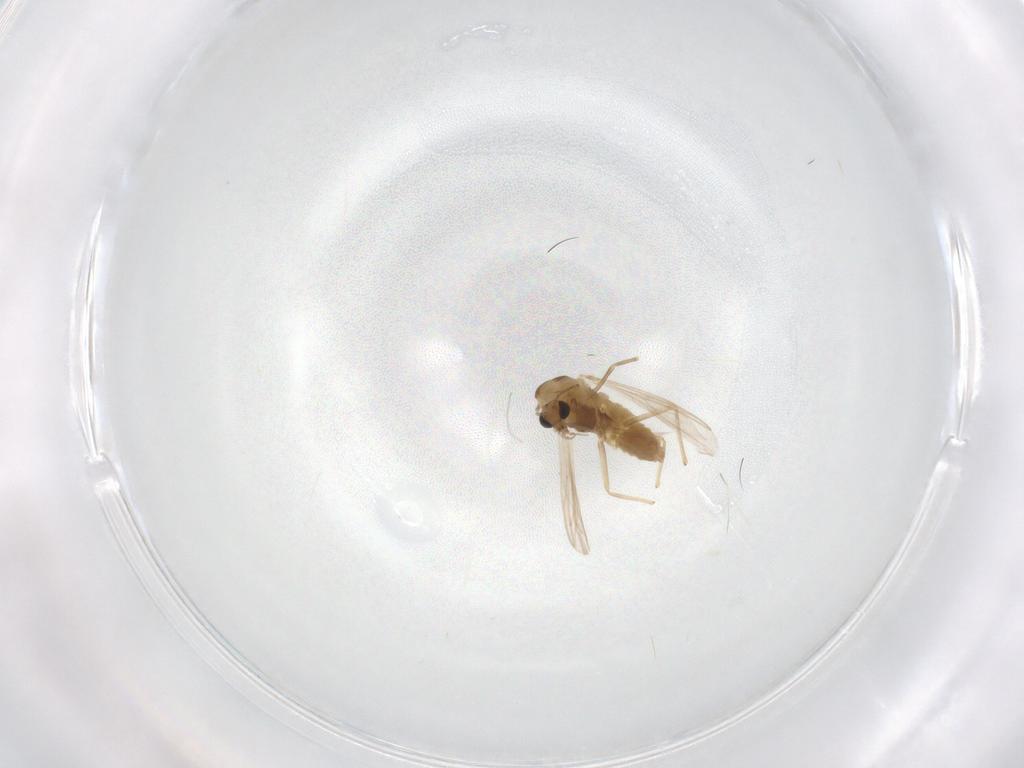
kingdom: Animalia
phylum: Arthropoda
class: Insecta
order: Diptera
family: Chironomidae
